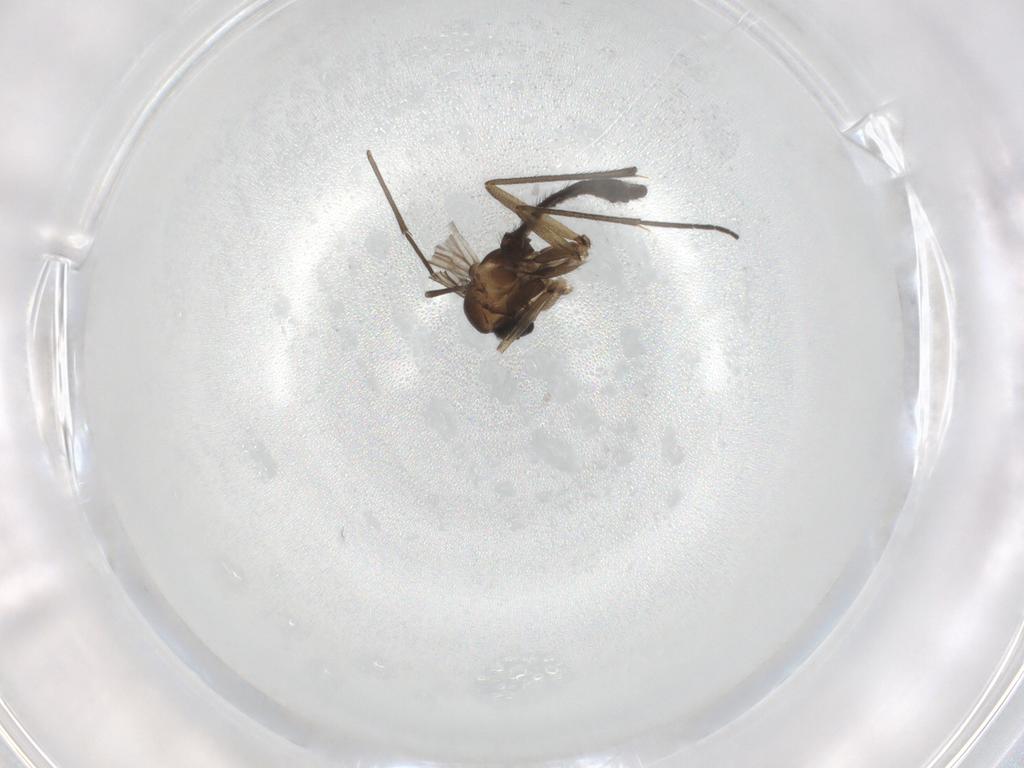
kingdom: Animalia
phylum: Arthropoda
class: Insecta
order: Diptera
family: Sciaridae
